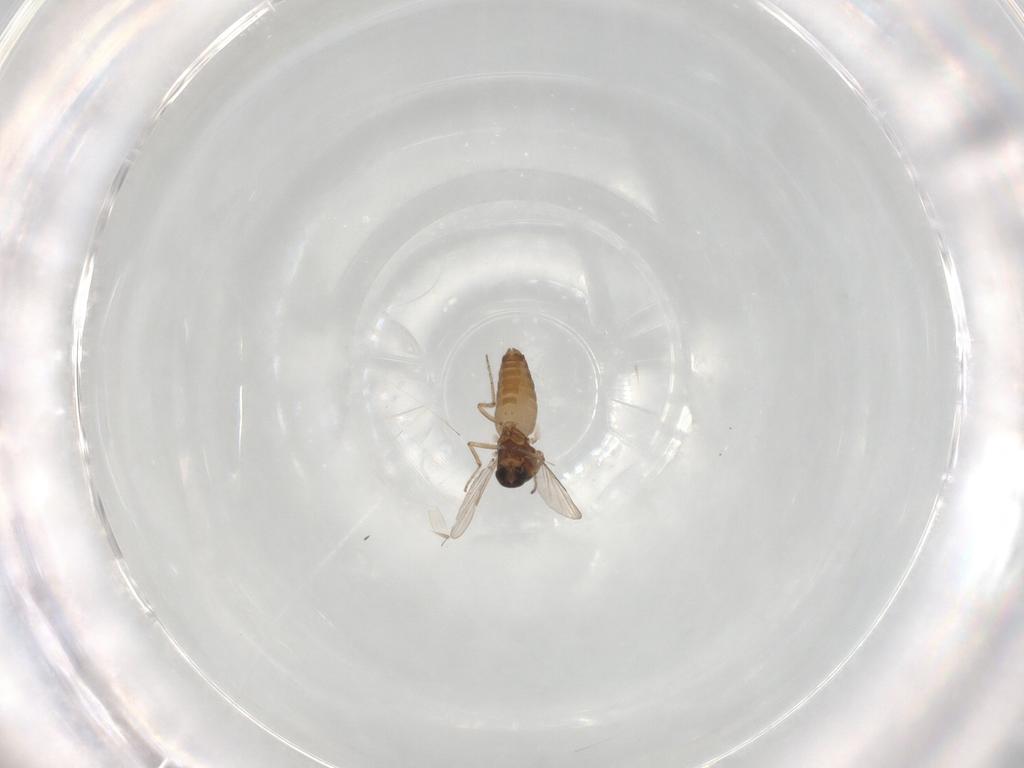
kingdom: Animalia
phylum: Arthropoda
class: Insecta
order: Diptera
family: Ceratopogonidae
